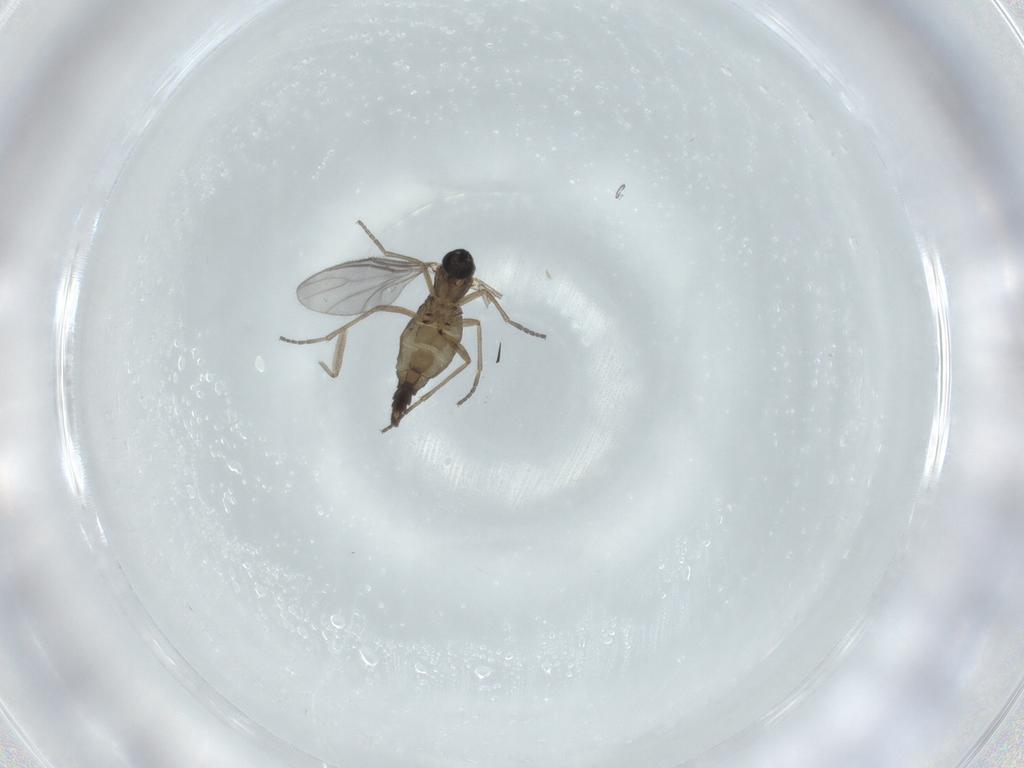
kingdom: Animalia
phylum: Arthropoda
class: Insecta
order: Diptera
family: Sciaridae
